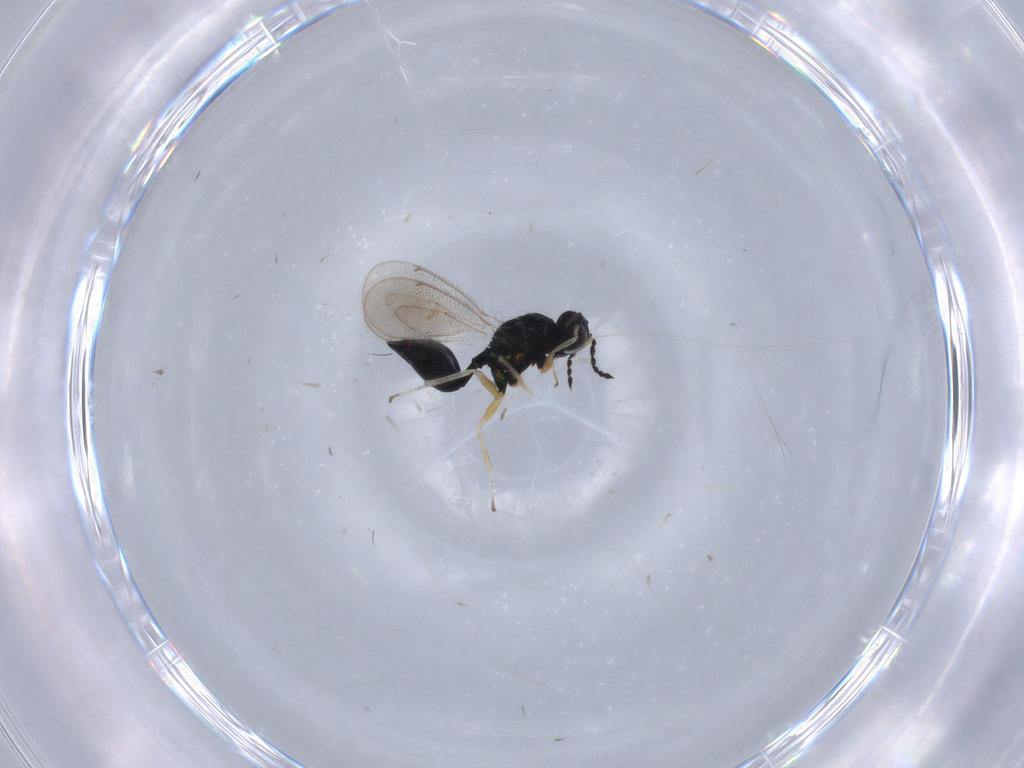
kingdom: Animalia
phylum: Arthropoda
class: Insecta
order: Hymenoptera
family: Eulophidae
